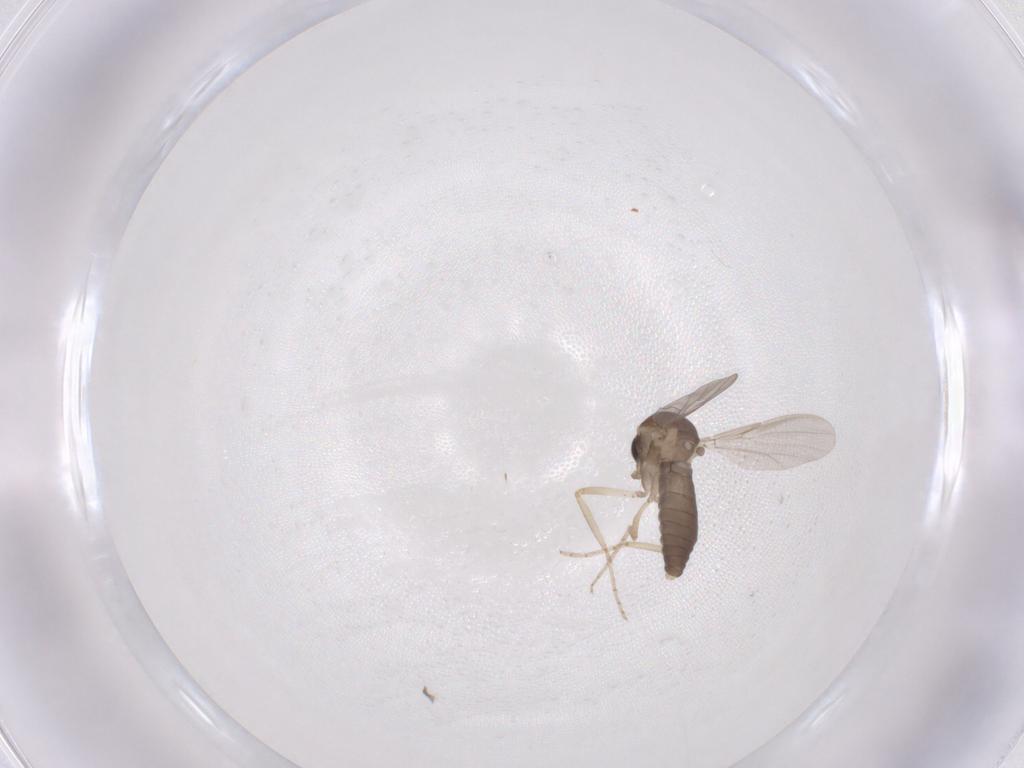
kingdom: Animalia
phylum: Arthropoda
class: Insecta
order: Diptera
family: Ceratopogonidae
